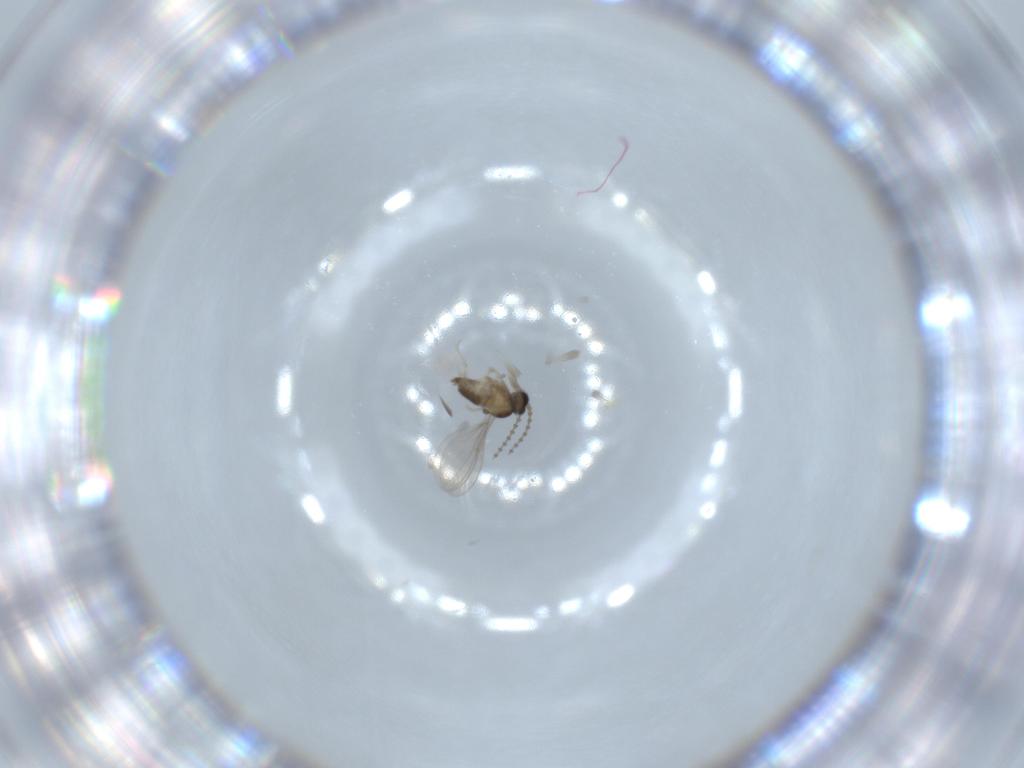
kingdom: Animalia
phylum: Arthropoda
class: Insecta
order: Diptera
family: Cecidomyiidae
